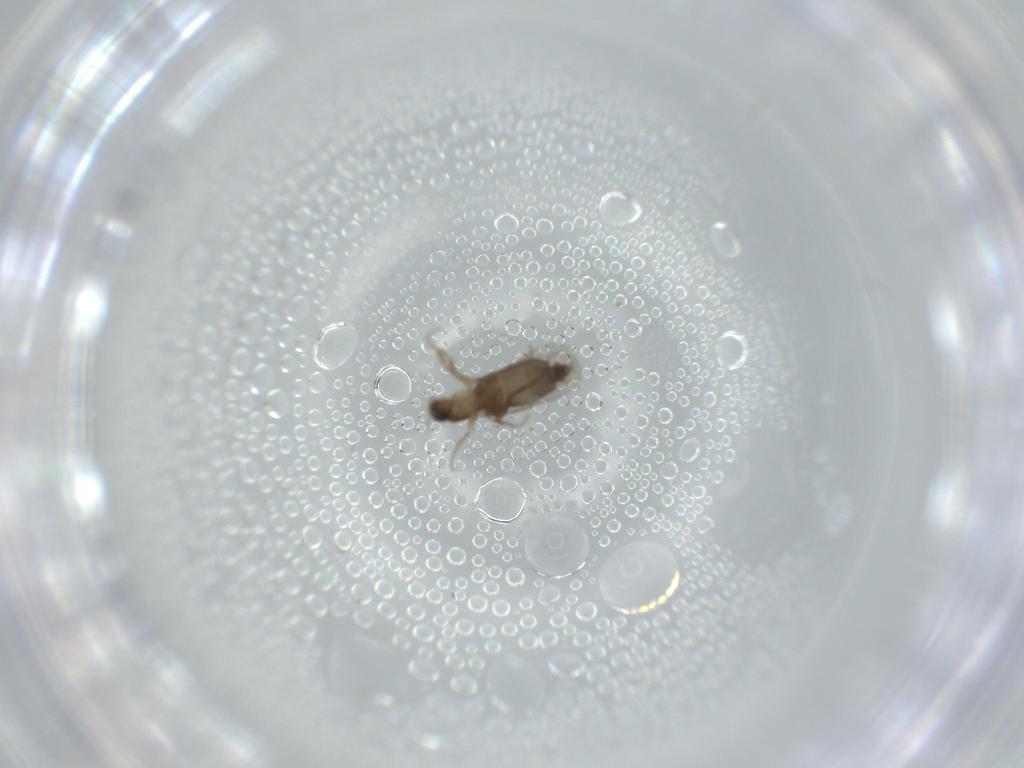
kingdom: Animalia
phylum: Arthropoda
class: Insecta
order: Diptera
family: Phoridae
